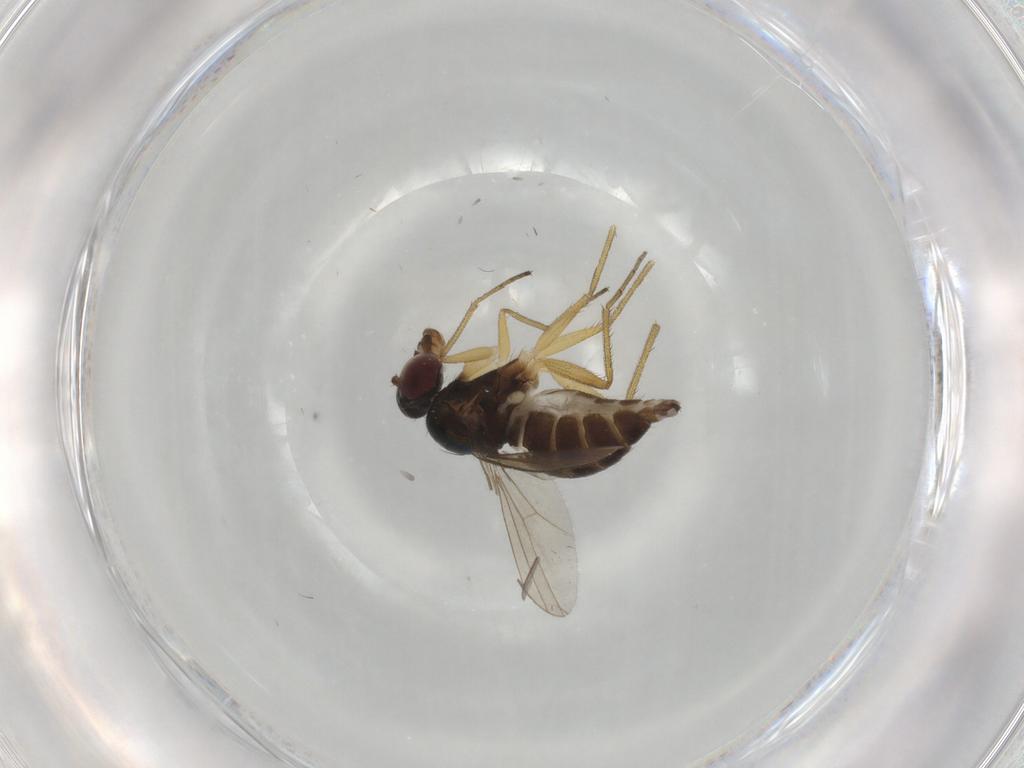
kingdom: Animalia
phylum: Arthropoda
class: Insecta
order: Diptera
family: Dolichopodidae
